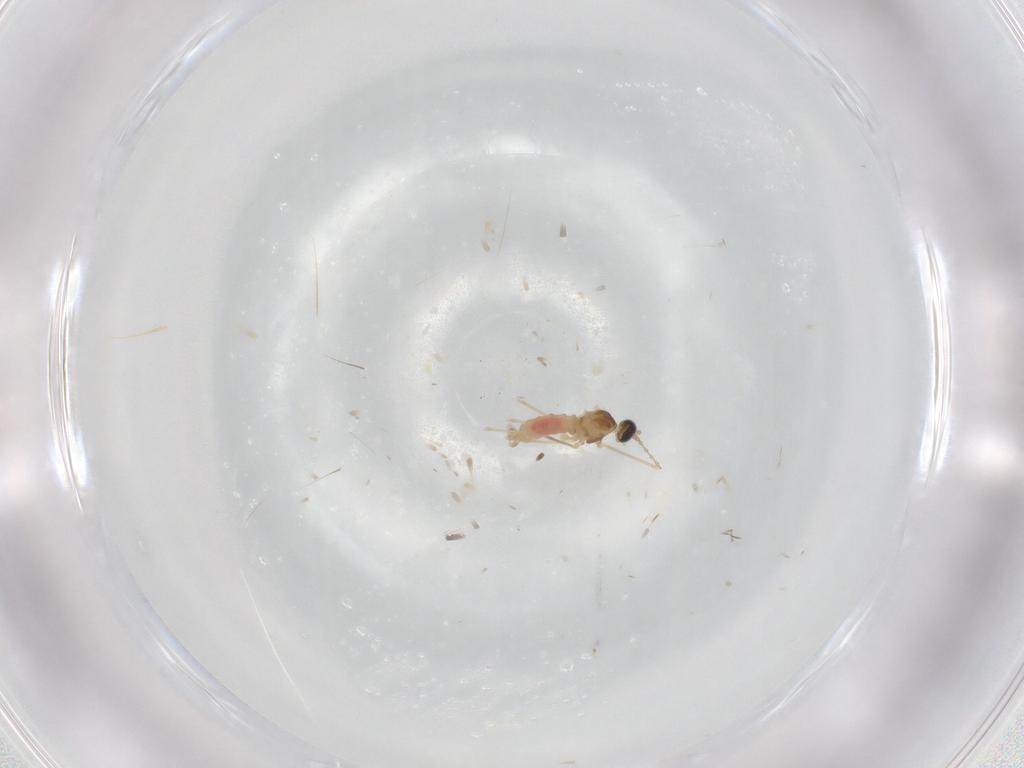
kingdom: Animalia
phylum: Arthropoda
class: Insecta
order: Diptera
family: Cecidomyiidae
